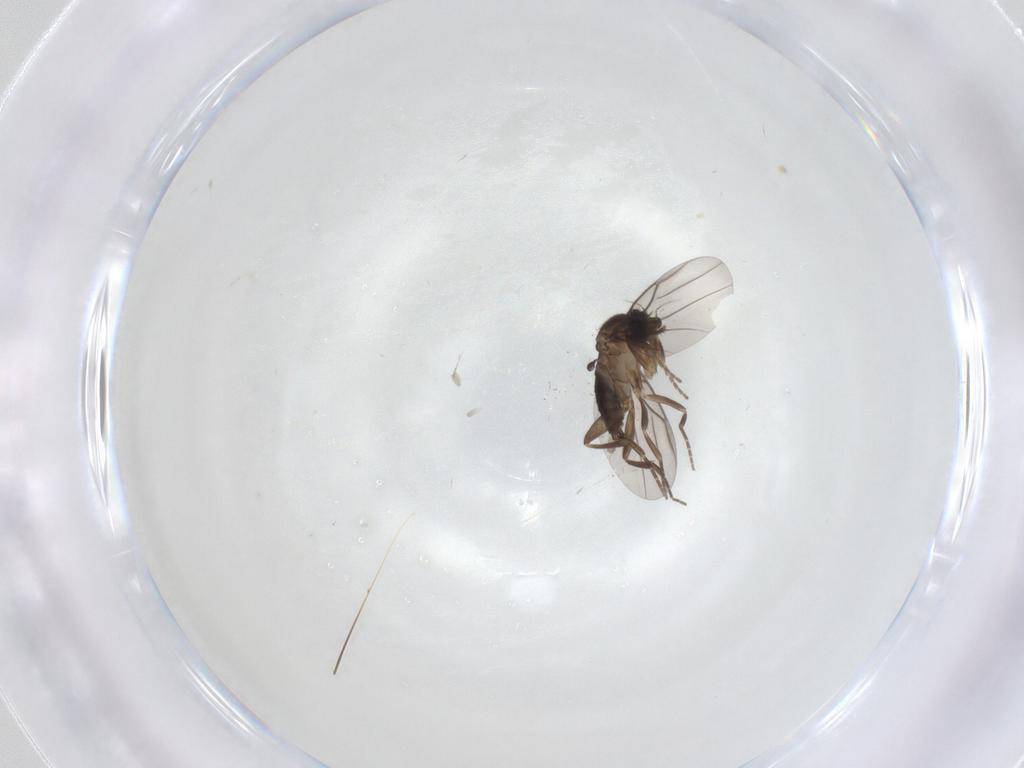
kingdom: Animalia
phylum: Arthropoda
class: Insecta
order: Diptera
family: Phoridae
